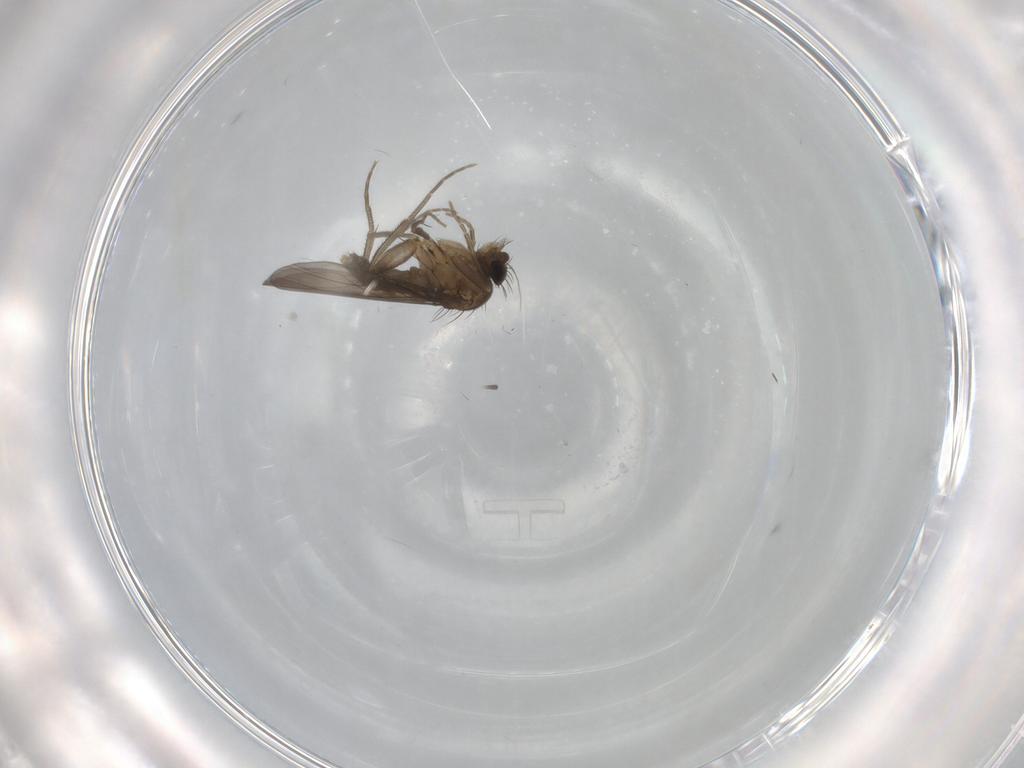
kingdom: Animalia
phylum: Arthropoda
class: Insecta
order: Diptera
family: Phoridae
